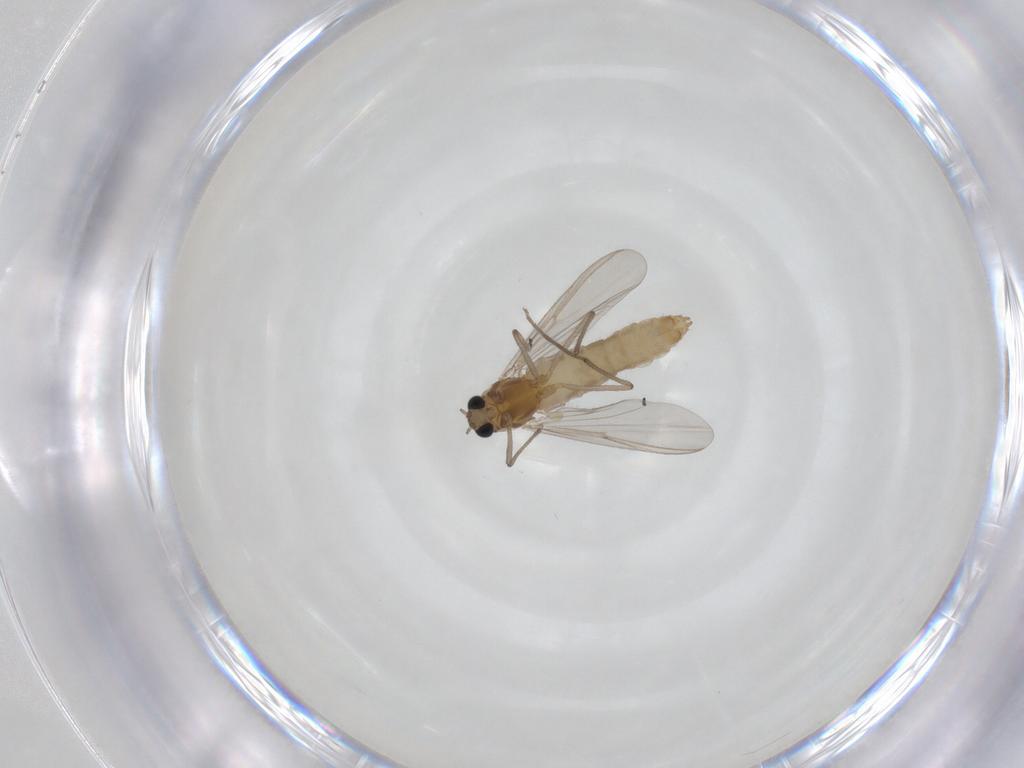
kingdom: Animalia
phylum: Arthropoda
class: Insecta
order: Diptera
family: Chironomidae
